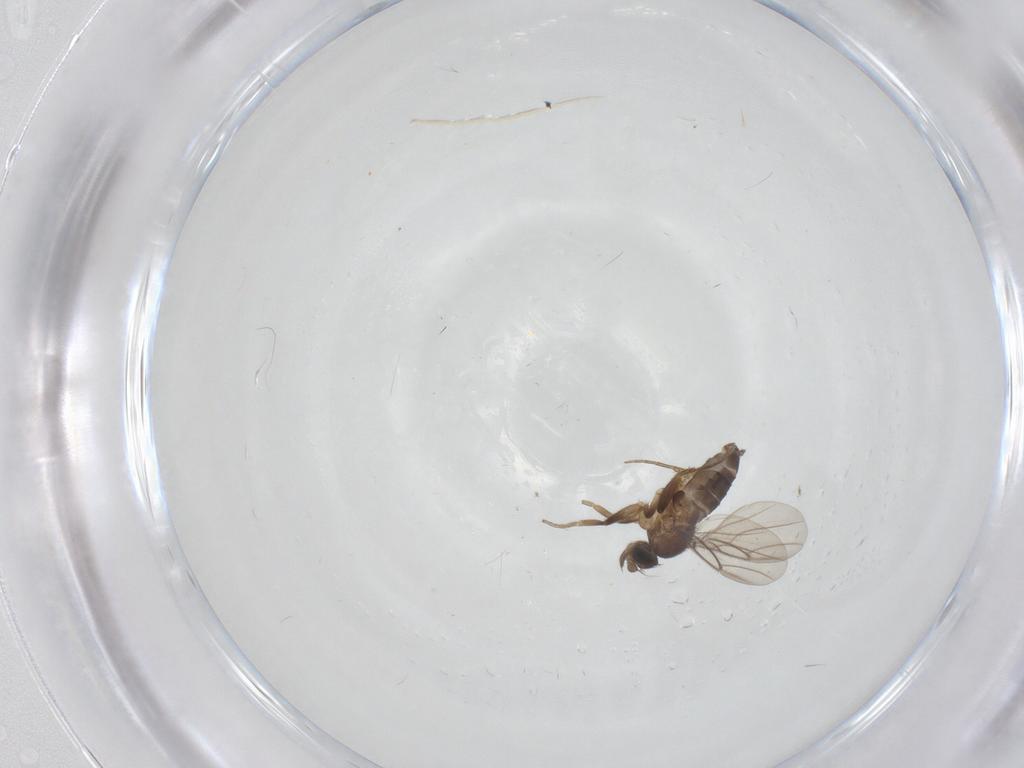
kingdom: Animalia
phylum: Arthropoda
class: Insecta
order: Diptera
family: Phoridae
